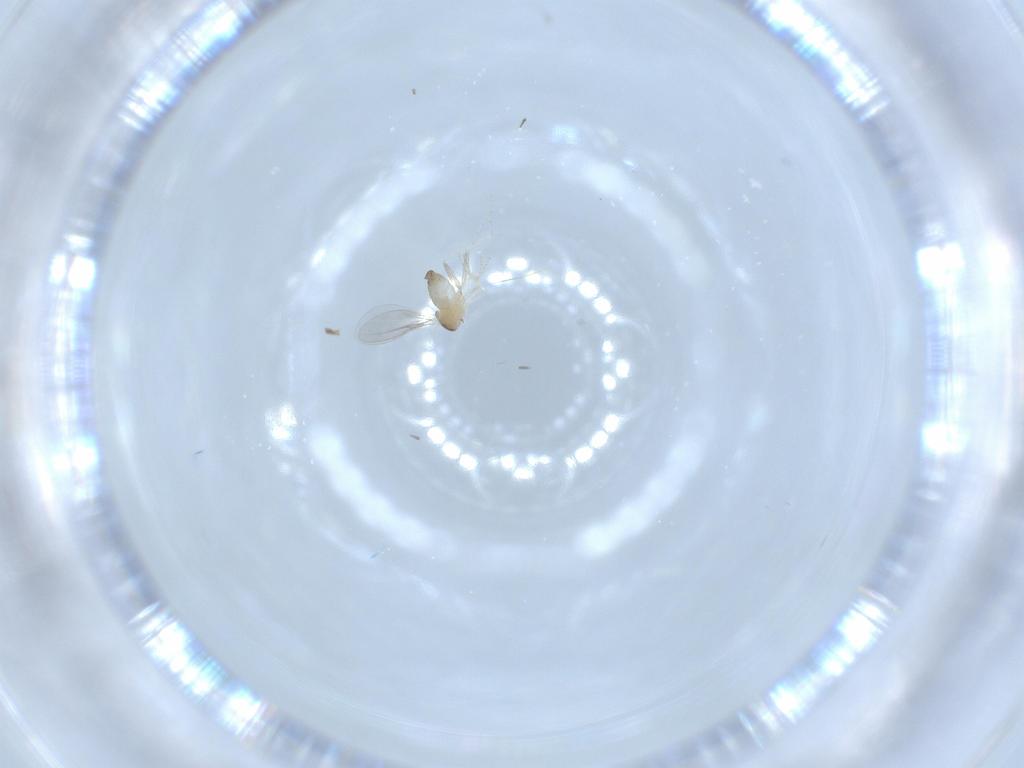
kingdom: Animalia
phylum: Arthropoda
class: Insecta
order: Diptera
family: Cecidomyiidae
